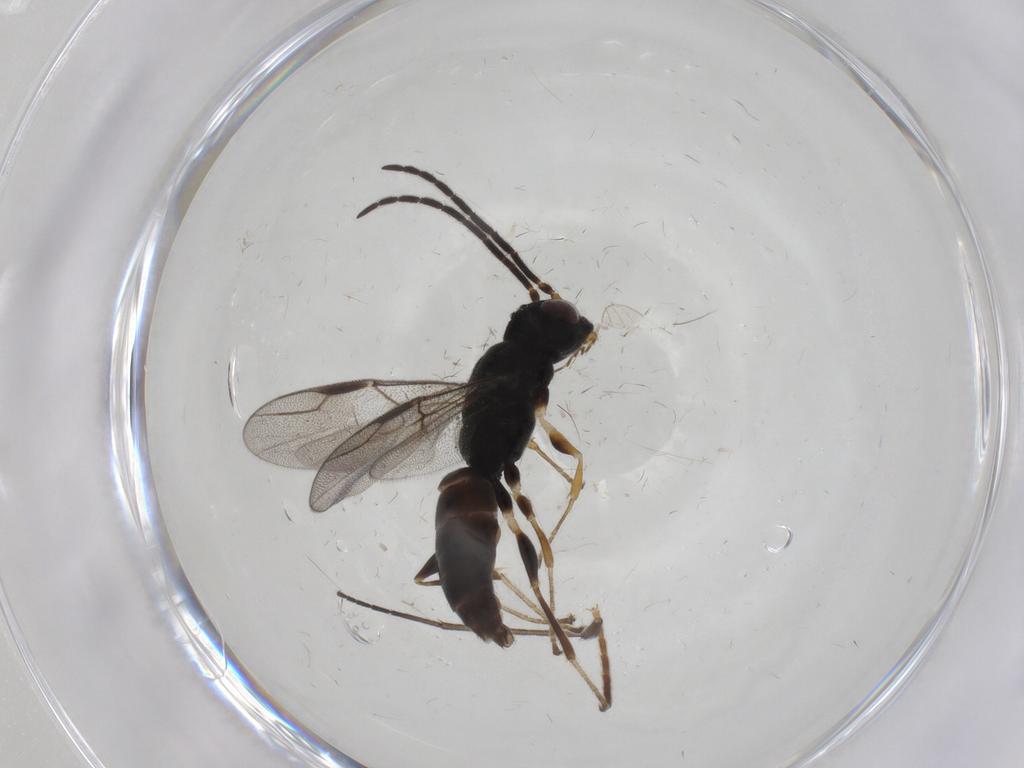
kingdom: Animalia
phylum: Arthropoda
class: Insecta
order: Hymenoptera
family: Dryinidae
